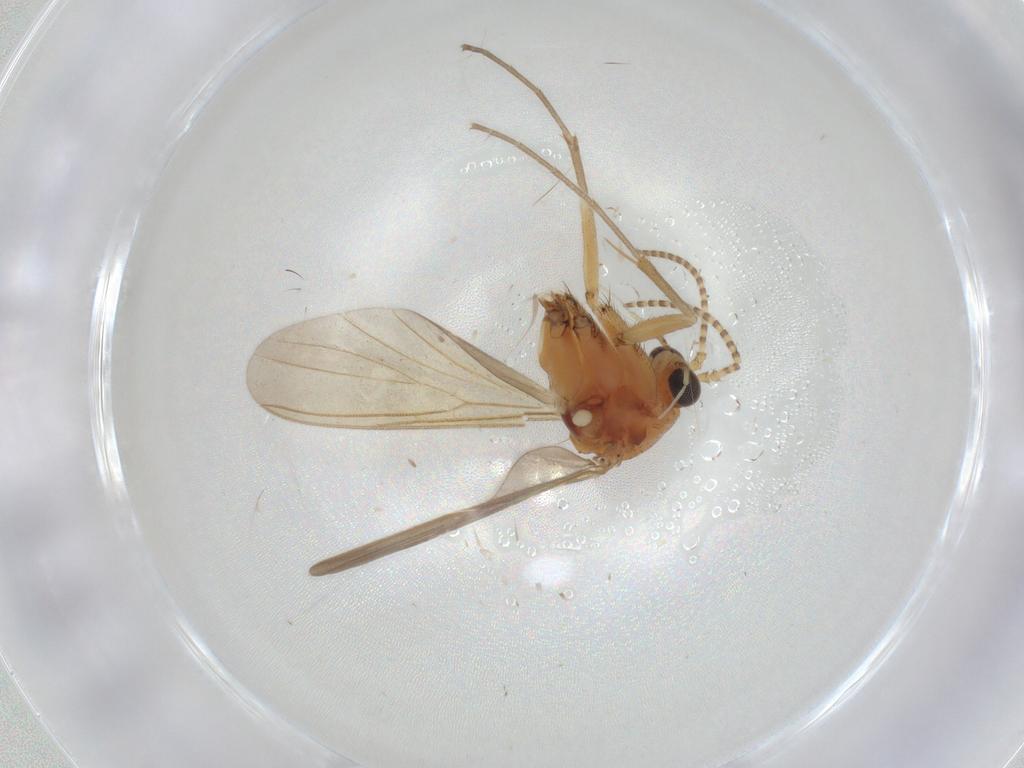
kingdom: Animalia
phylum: Arthropoda
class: Insecta
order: Diptera
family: Mycetophilidae
